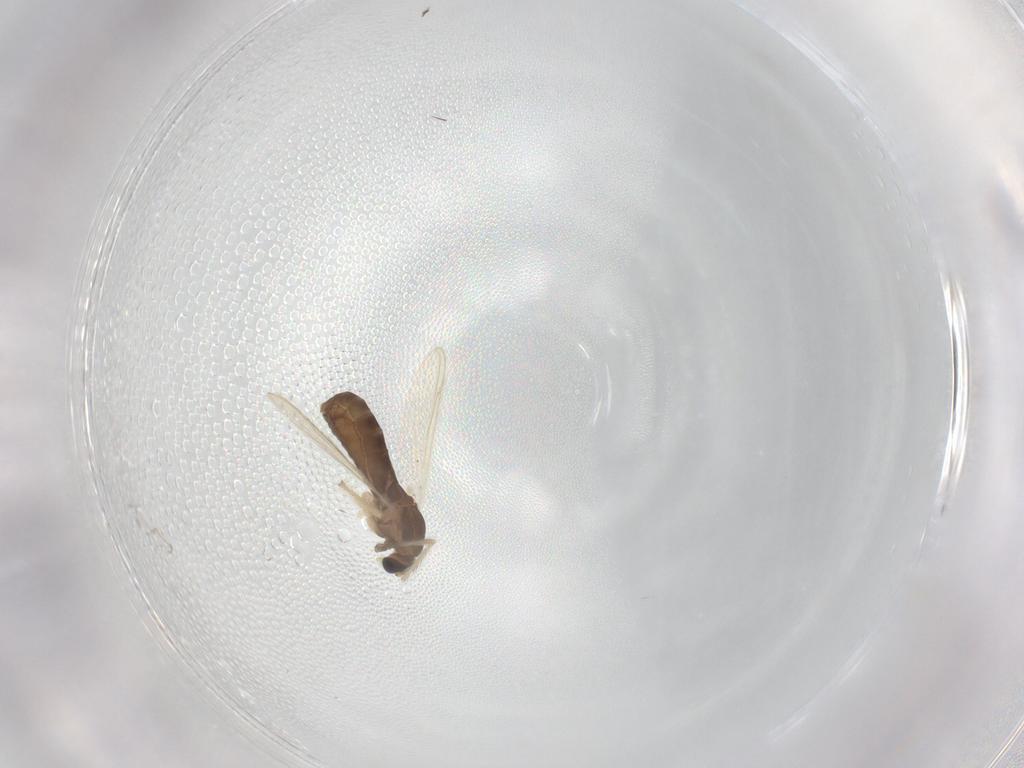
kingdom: Animalia
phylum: Arthropoda
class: Insecta
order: Diptera
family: Chironomidae
